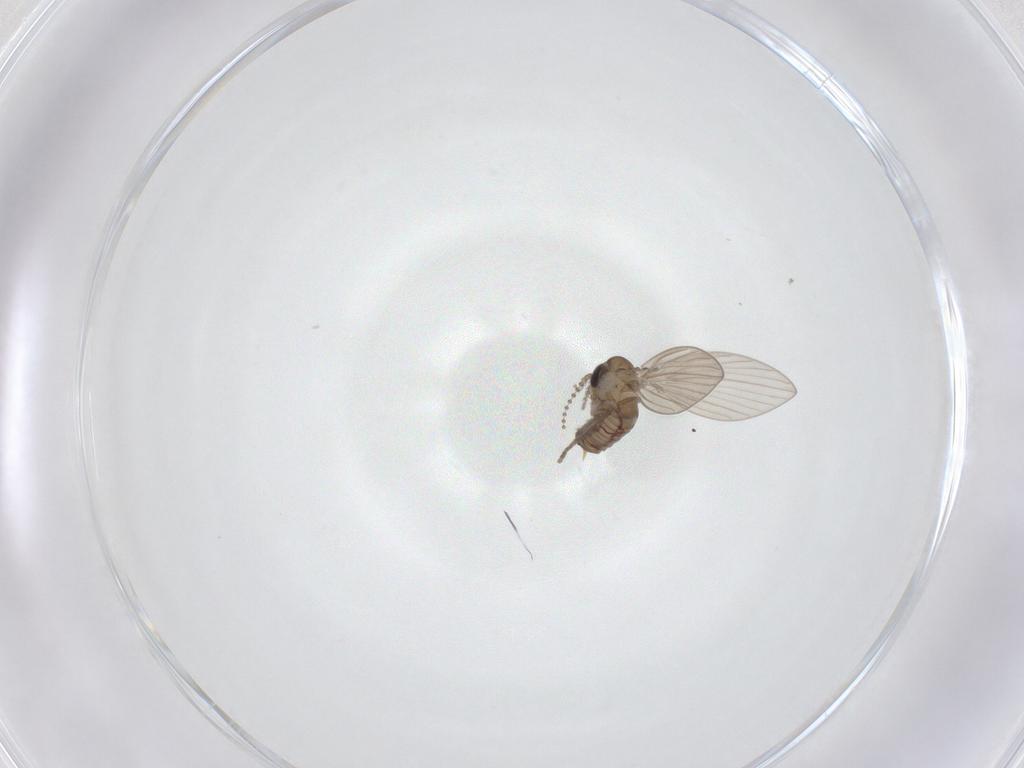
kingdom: Animalia
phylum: Arthropoda
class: Insecta
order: Diptera
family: Psychodidae
